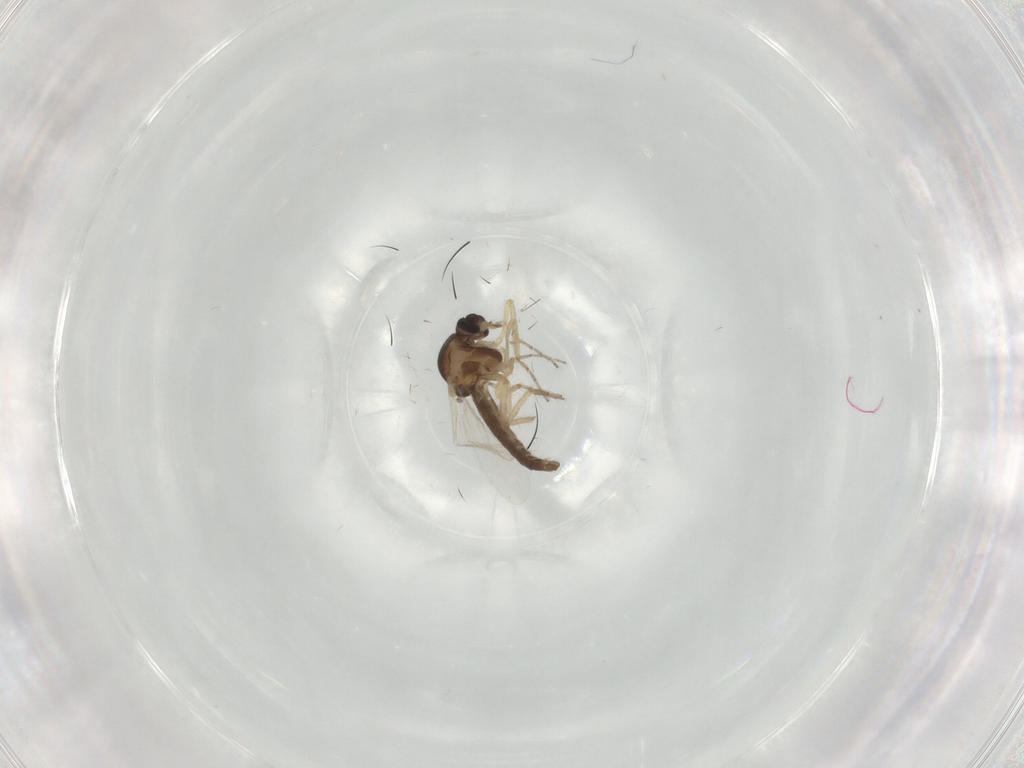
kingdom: Animalia
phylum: Arthropoda
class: Insecta
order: Diptera
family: Ceratopogonidae
